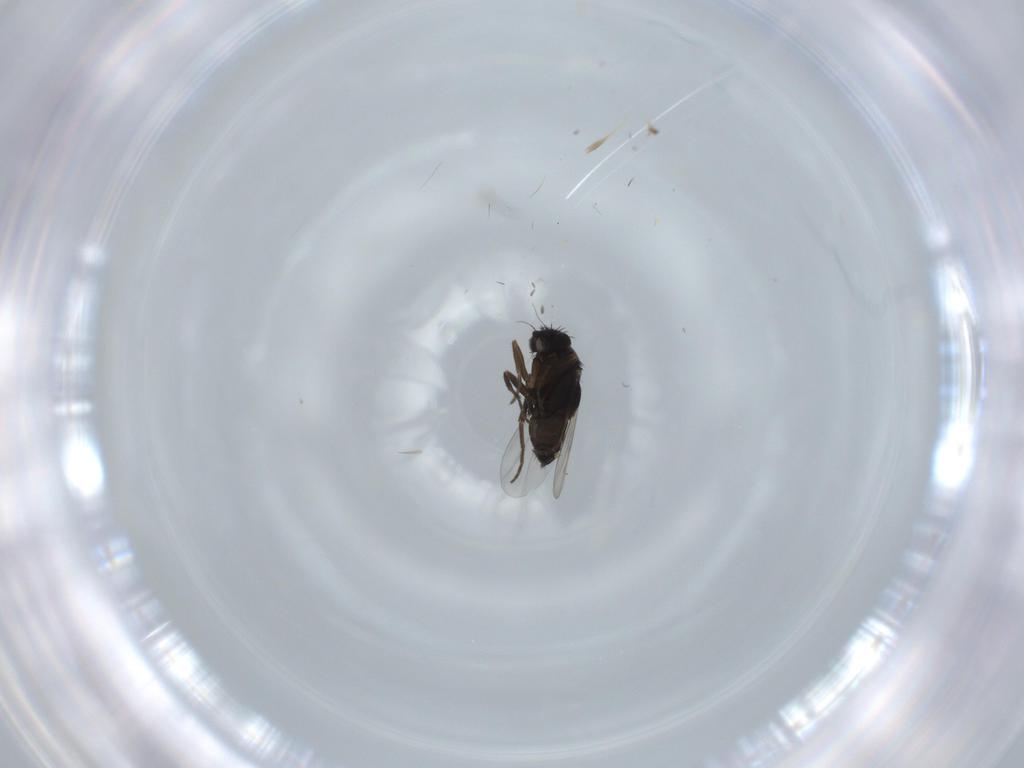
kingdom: Animalia
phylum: Arthropoda
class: Insecta
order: Diptera
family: Phoridae
